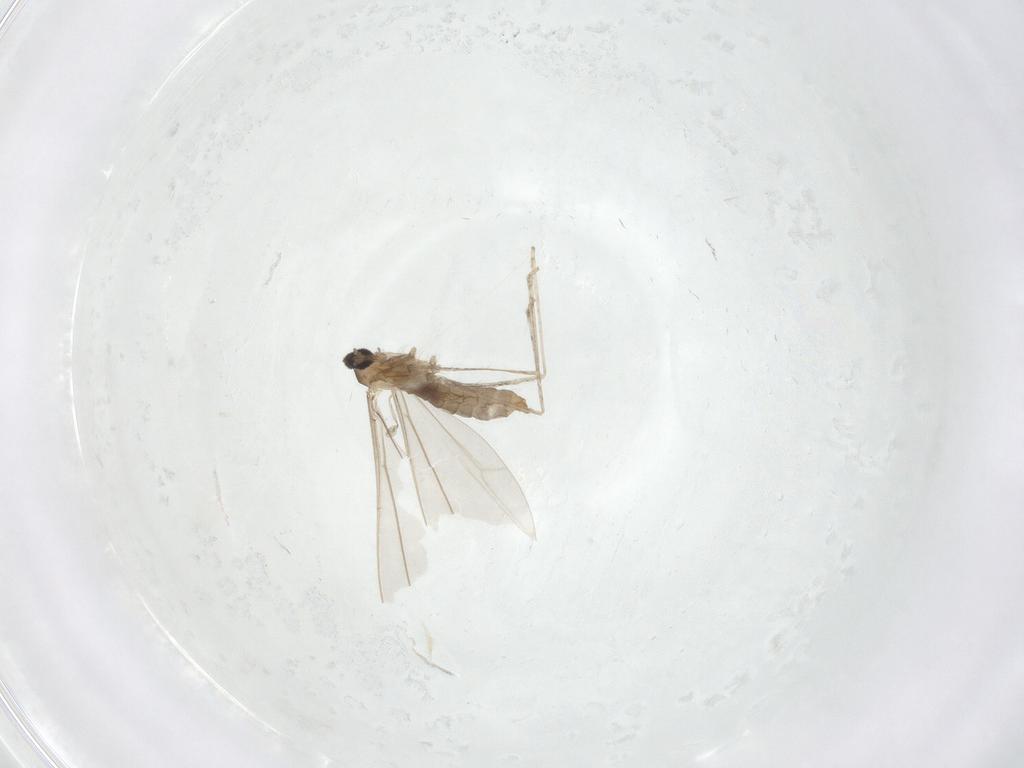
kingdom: Animalia
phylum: Arthropoda
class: Insecta
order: Diptera
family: Cecidomyiidae
